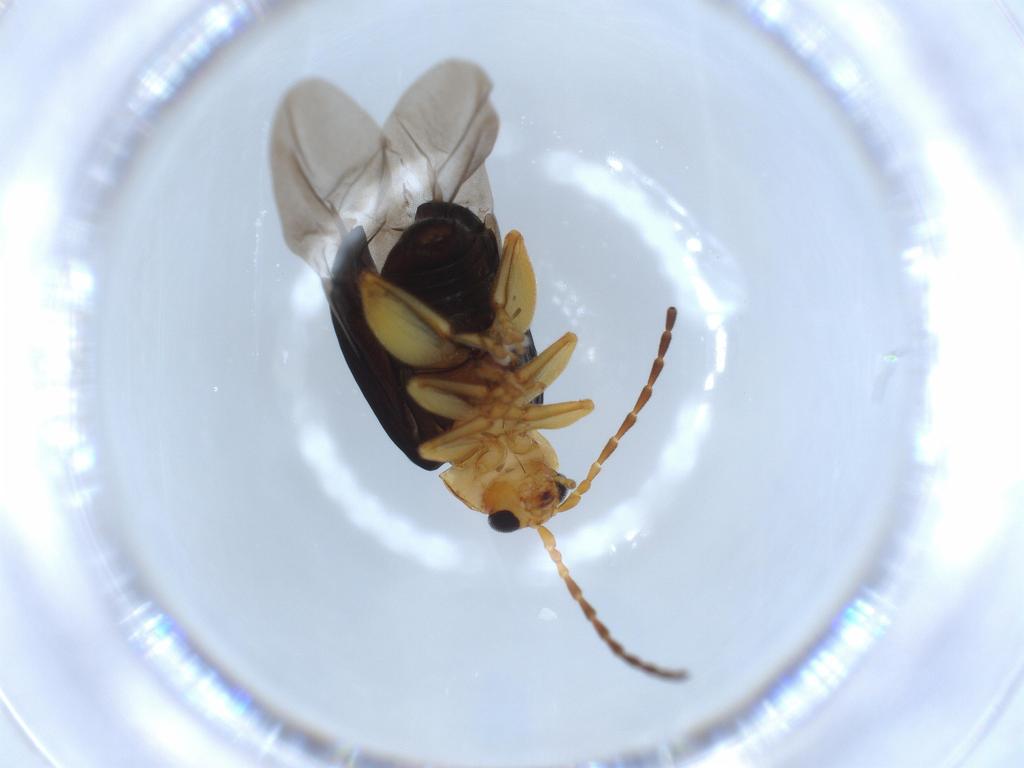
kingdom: Animalia
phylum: Arthropoda
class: Insecta
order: Coleoptera
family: Chrysomelidae
